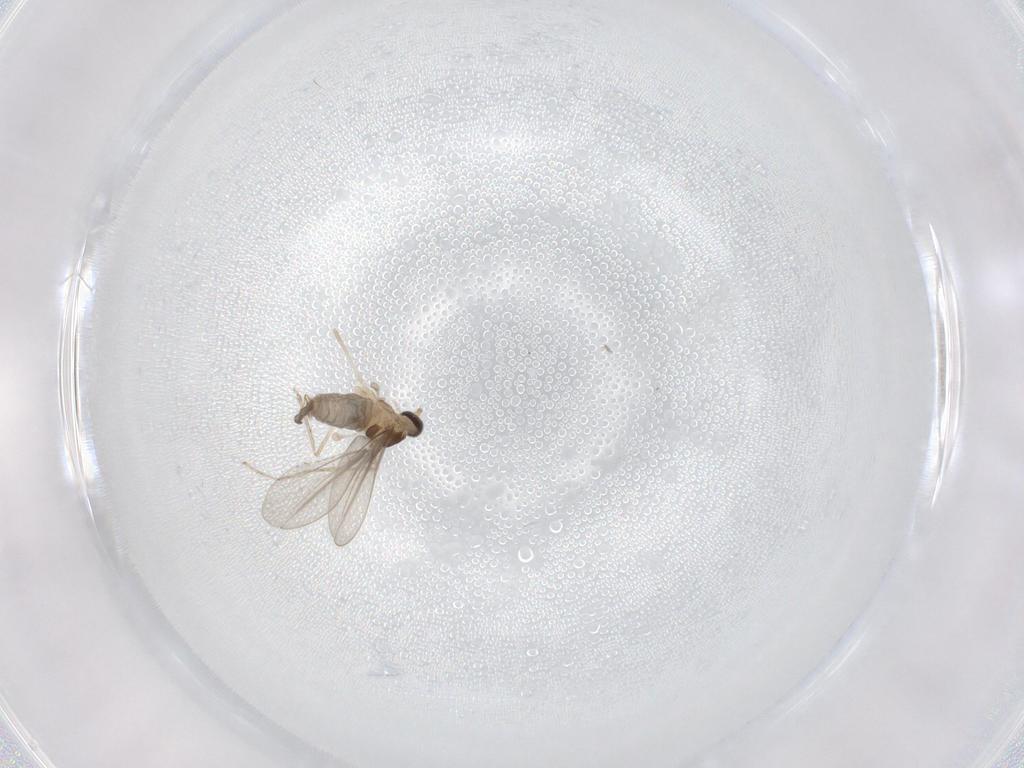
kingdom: Animalia
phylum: Arthropoda
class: Insecta
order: Diptera
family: Cecidomyiidae
